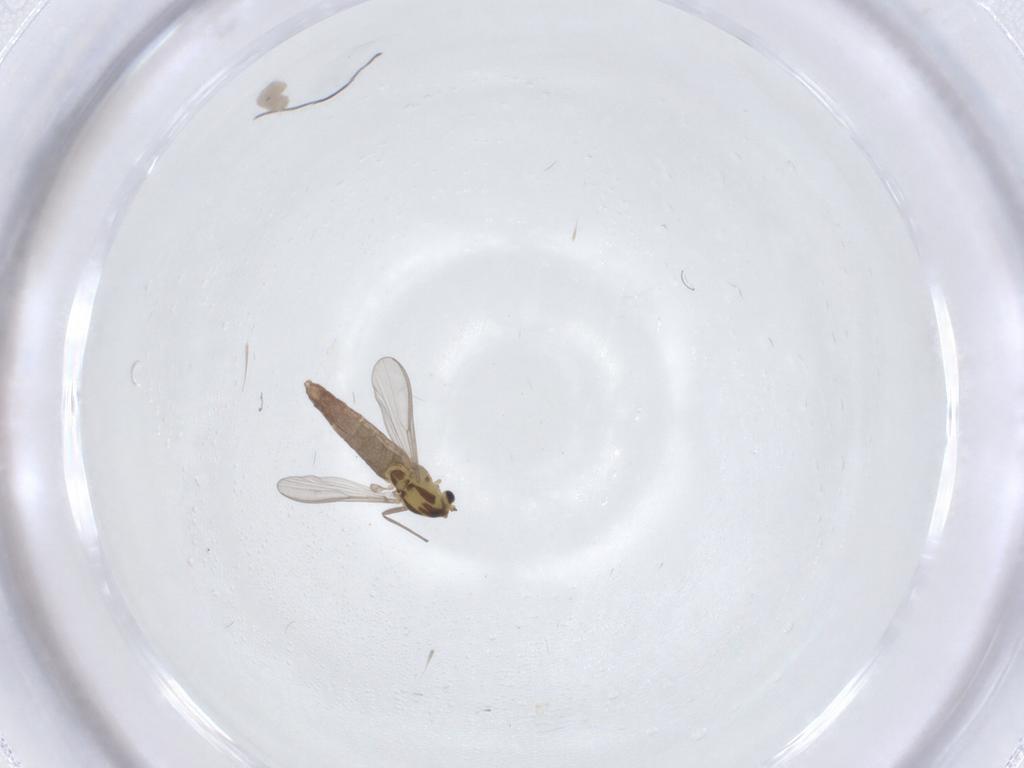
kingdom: Animalia
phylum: Arthropoda
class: Insecta
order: Diptera
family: Chironomidae
